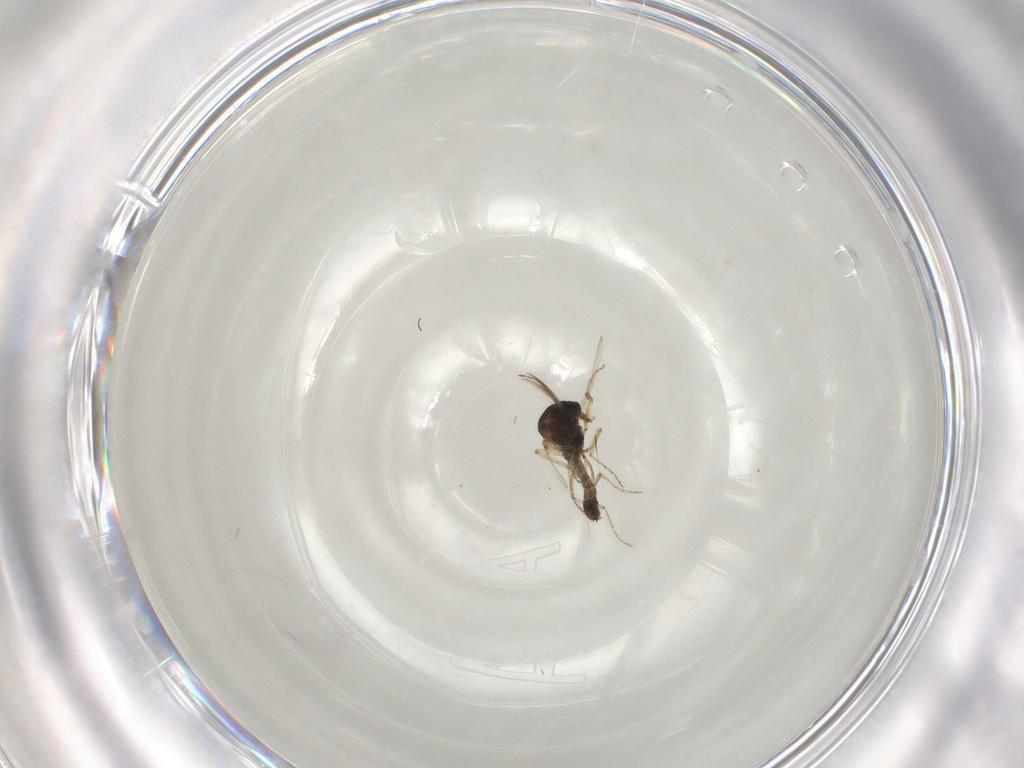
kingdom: Animalia
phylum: Arthropoda
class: Insecta
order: Diptera
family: Ceratopogonidae
